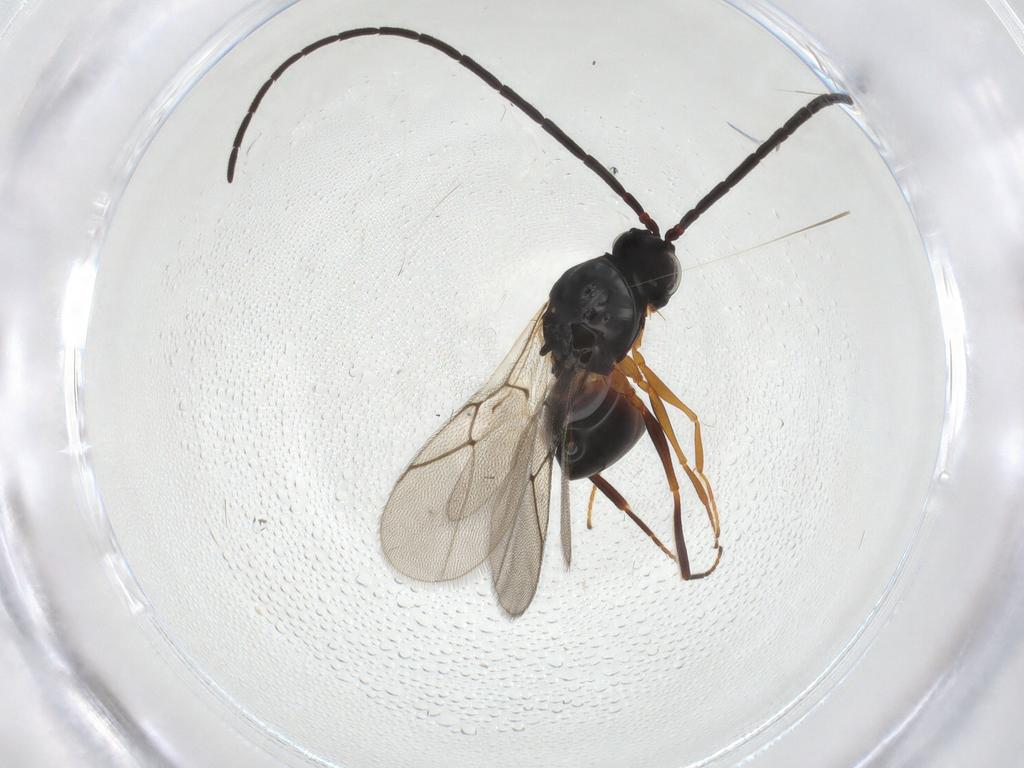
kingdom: Animalia
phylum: Arthropoda
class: Insecta
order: Hymenoptera
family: Figitidae
